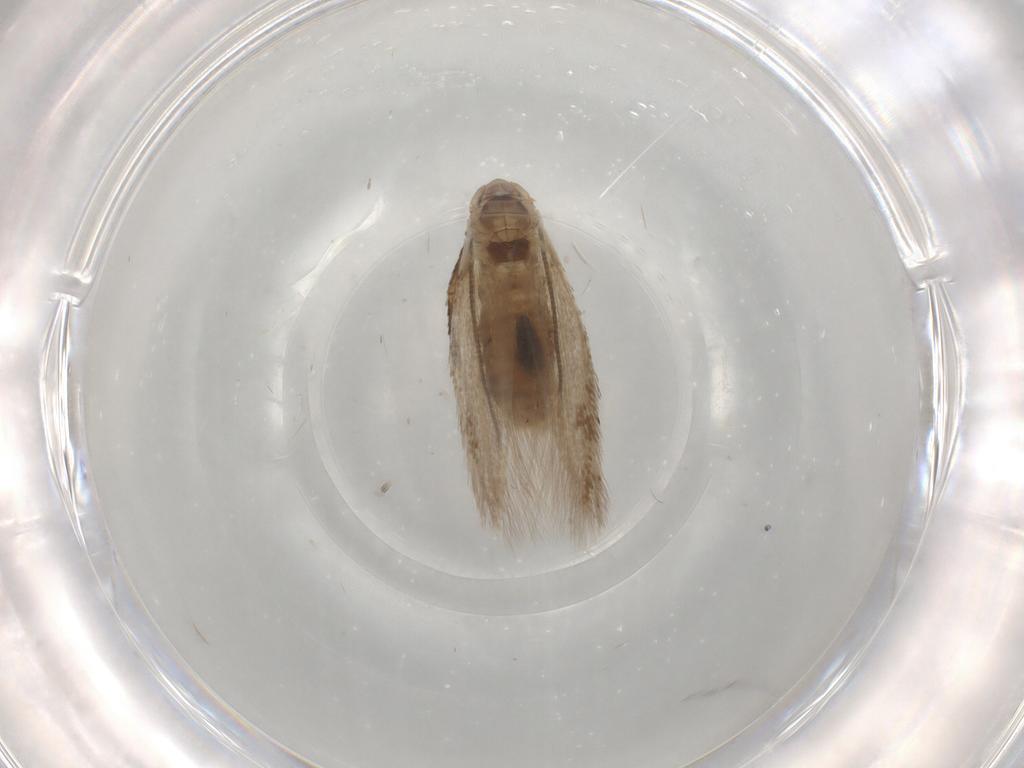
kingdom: Animalia
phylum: Arthropoda
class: Insecta
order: Lepidoptera
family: Bucculatricidae
